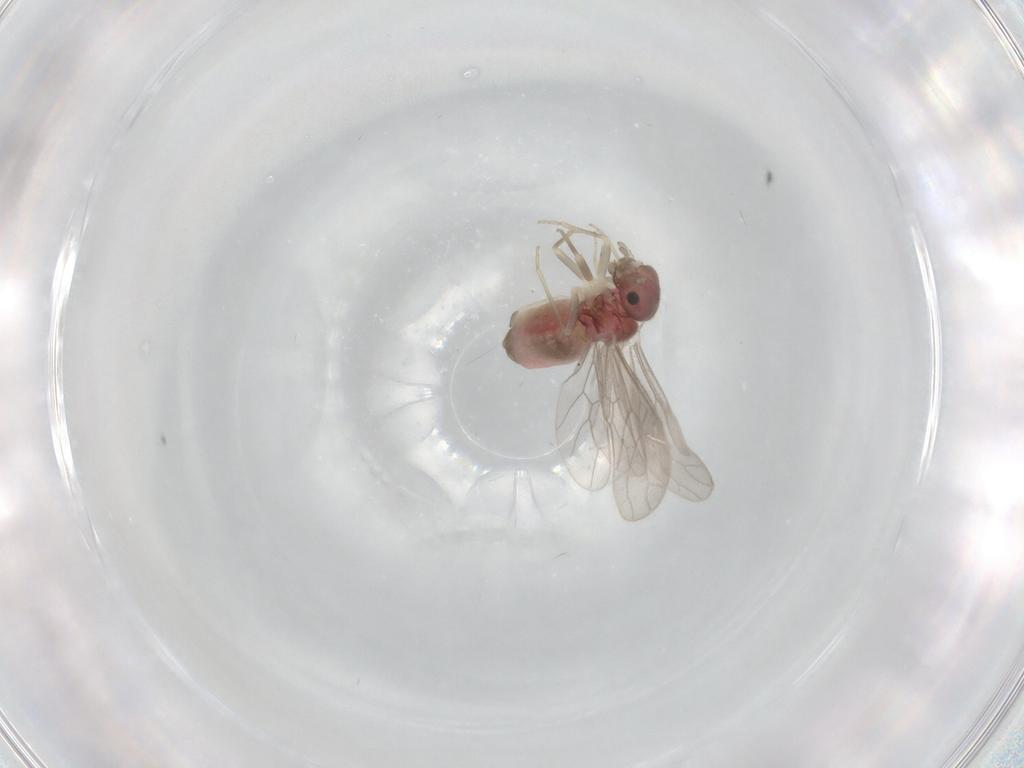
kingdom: Animalia
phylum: Arthropoda
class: Insecta
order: Psocodea
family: Archipsocidae
